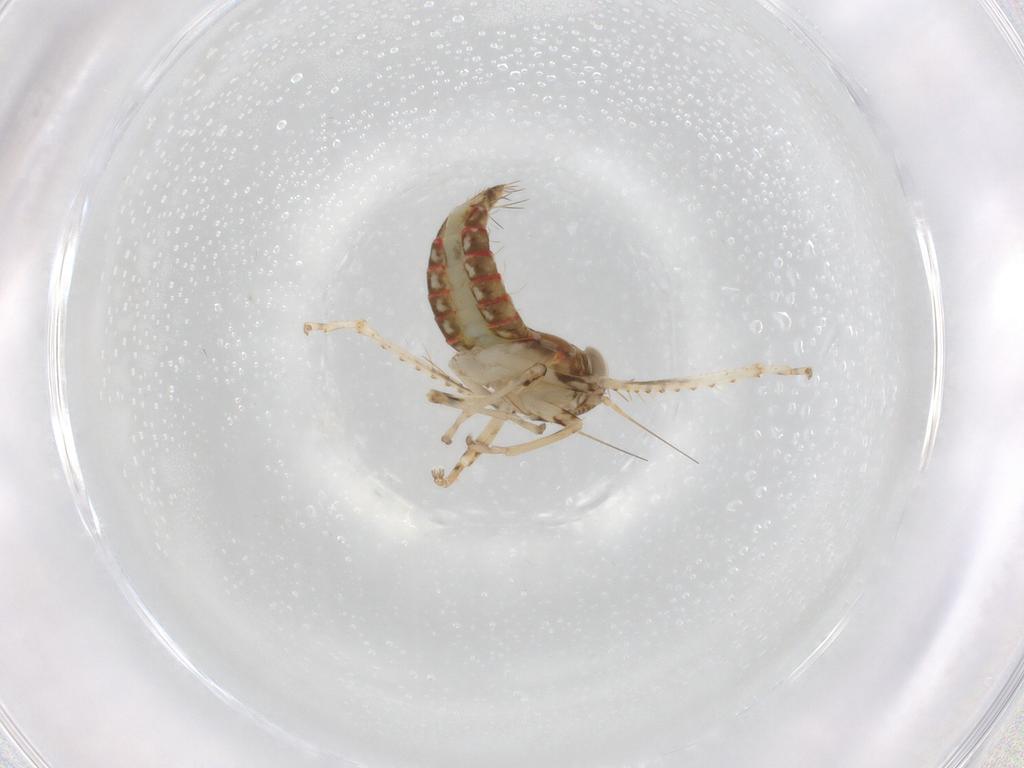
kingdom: Animalia
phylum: Arthropoda
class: Insecta
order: Hemiptera
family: Cicadellidae
